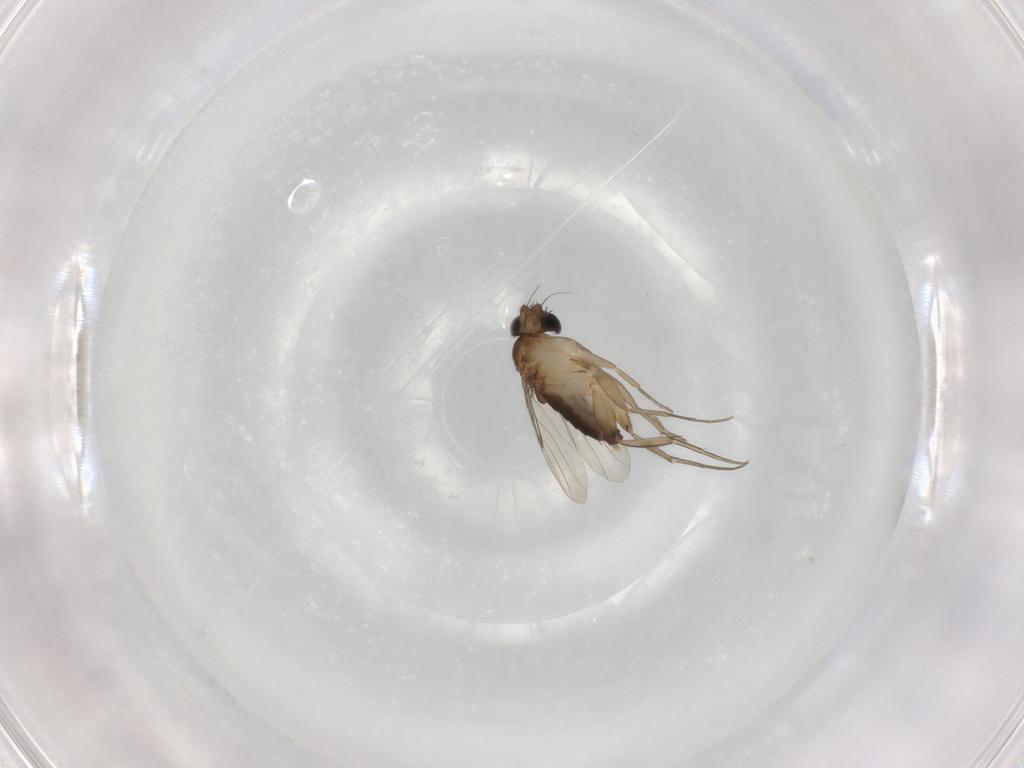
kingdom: Animalia
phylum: Arthropoda
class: Insecta
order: Diptera
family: Phoridae
